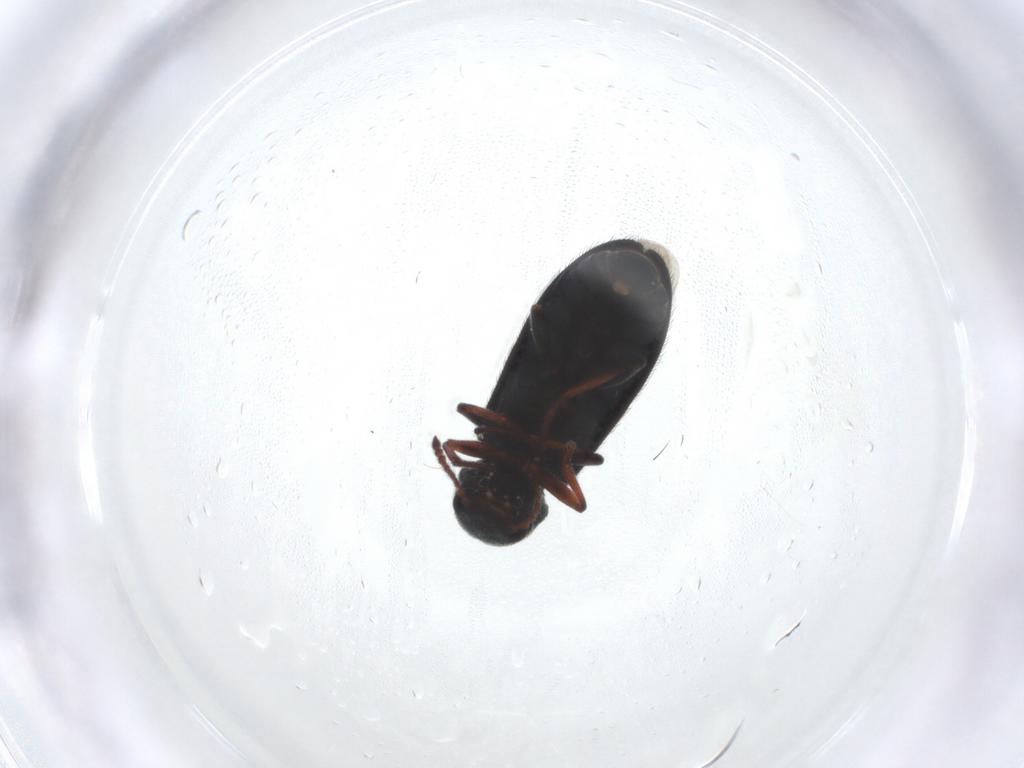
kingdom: Animalia
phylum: Arthropoda
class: Insecta
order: Coleoptera
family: Melyridae
